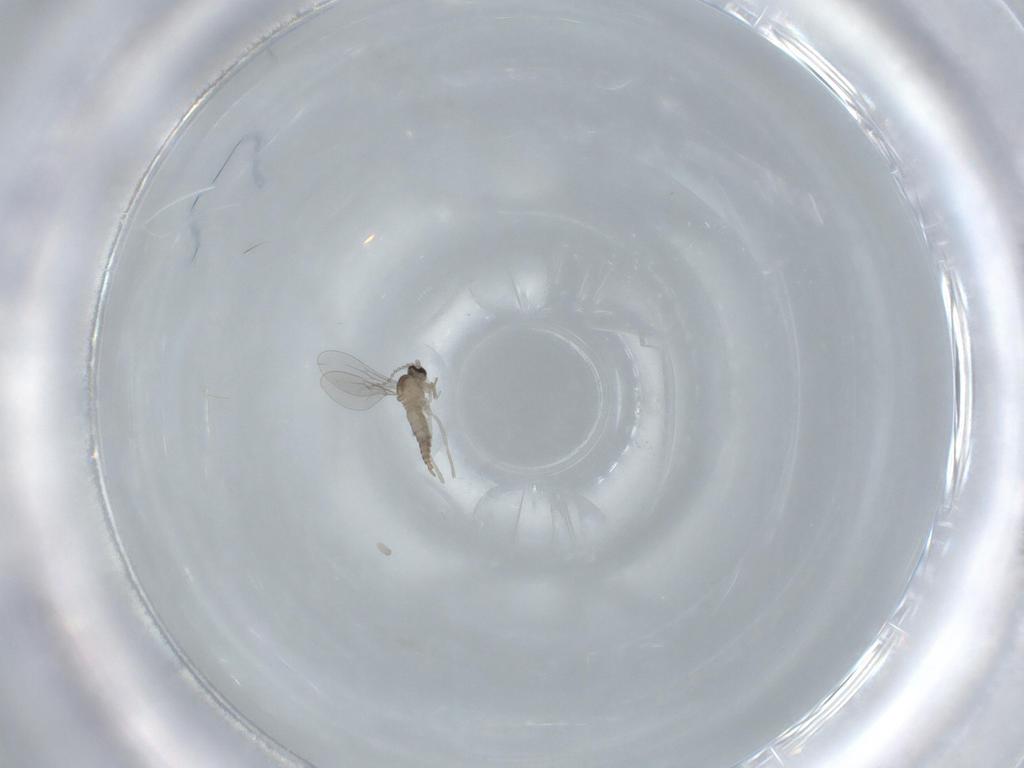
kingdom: Animalia
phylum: Arthropoda
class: Insecta
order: Diptera
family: Cecidomyiidae
